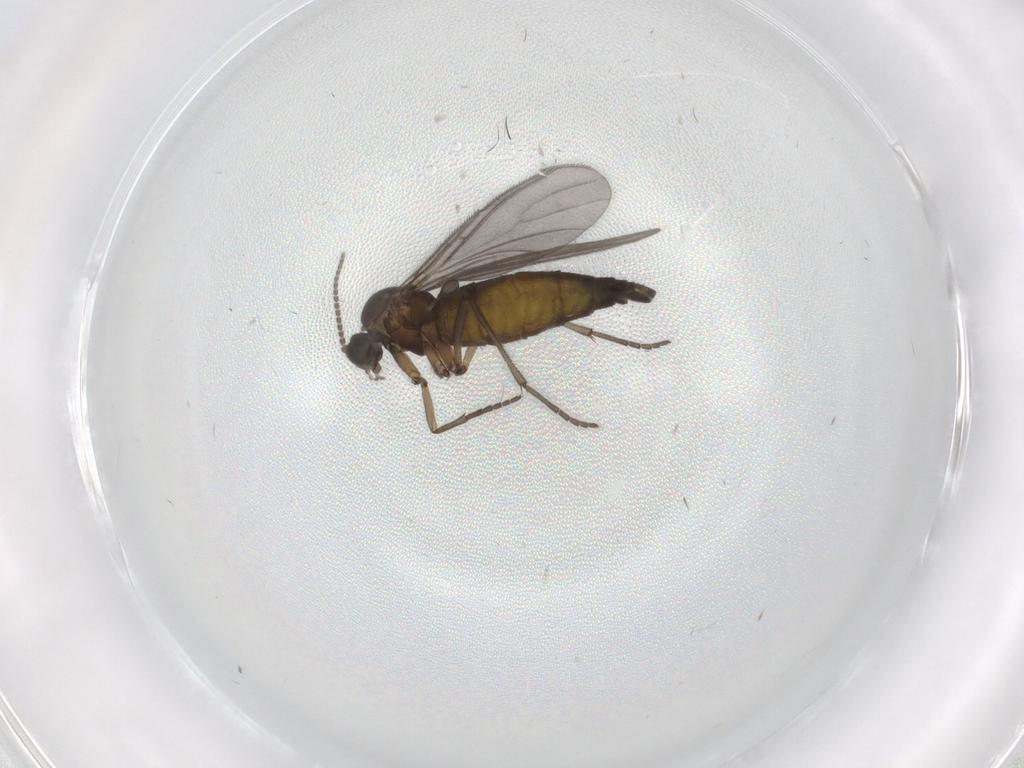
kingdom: Animalia
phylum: Arthropoda
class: Insecta
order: Diptera
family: Sciaridae
